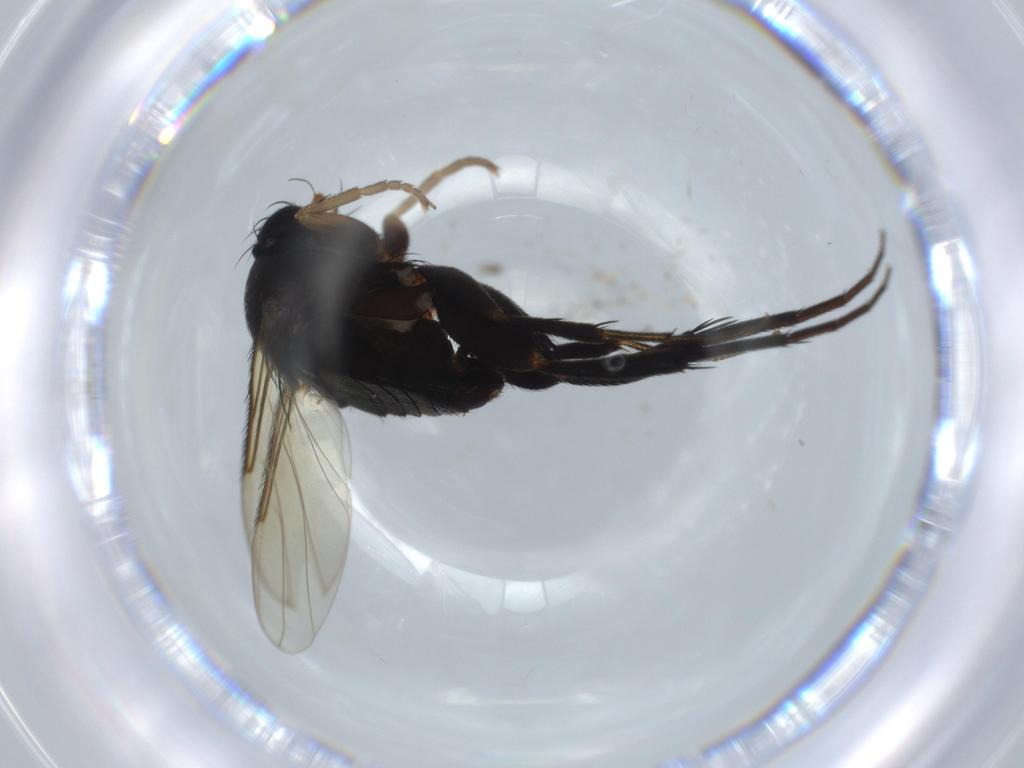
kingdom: Animalia
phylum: Arthropoda
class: Insecta
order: Diptera
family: Phoridae
